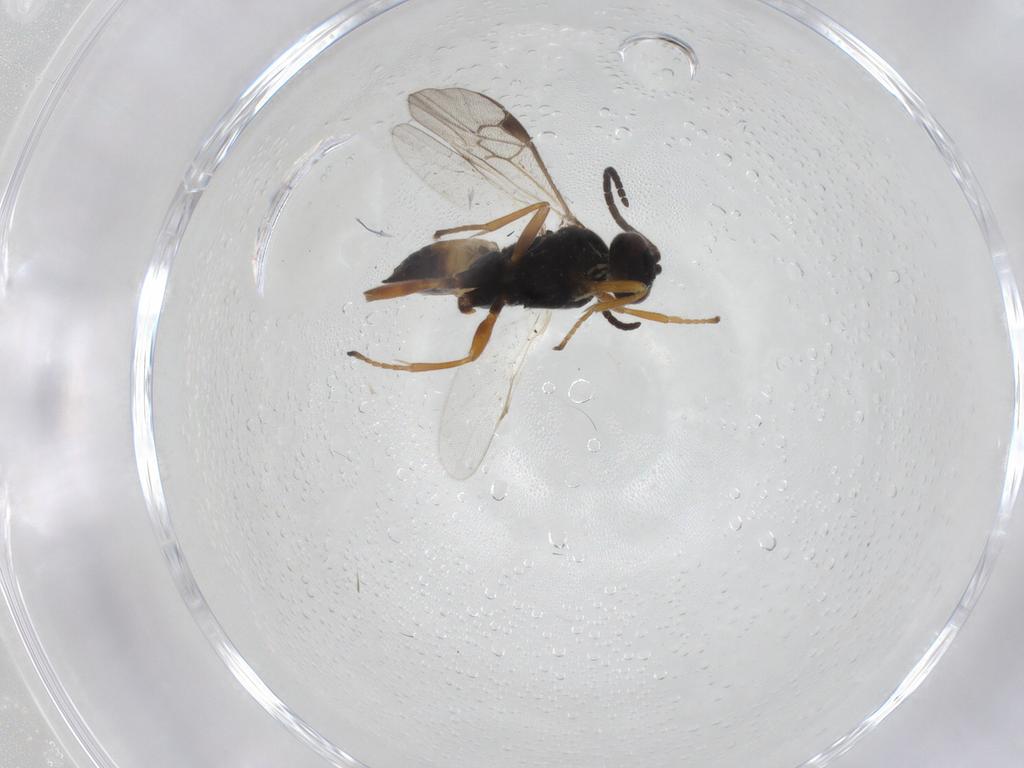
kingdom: Animalia
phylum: Arthropoda
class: Insecta
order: Hymenoptera
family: Braconidae
